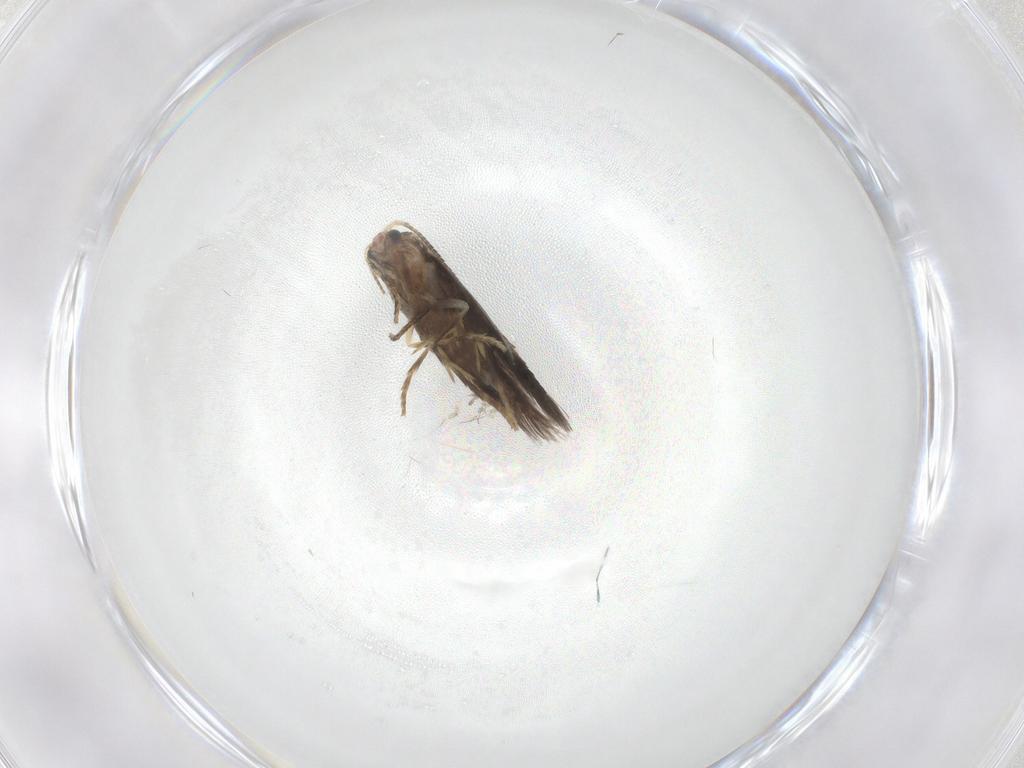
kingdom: Animalia
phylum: Arthropoda
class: Insecta
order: Lepidoptera
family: Nepticulidae
